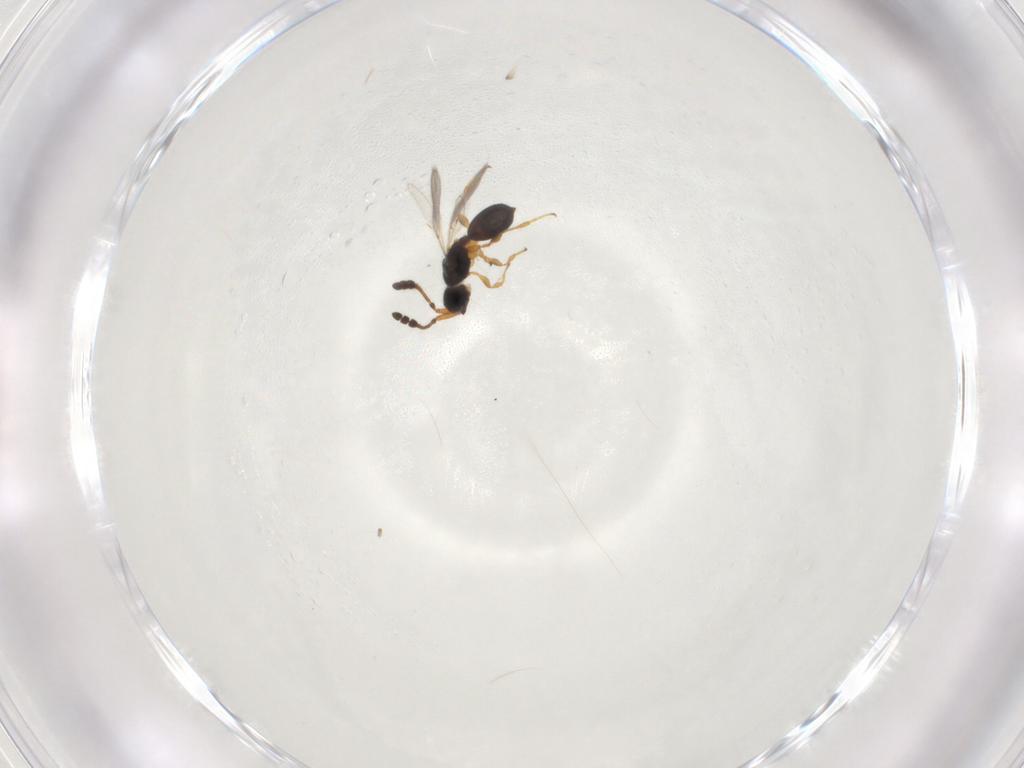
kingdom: Animalia
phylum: Arthropoda
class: Insecta
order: Hymenoptera
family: Diapriidae
